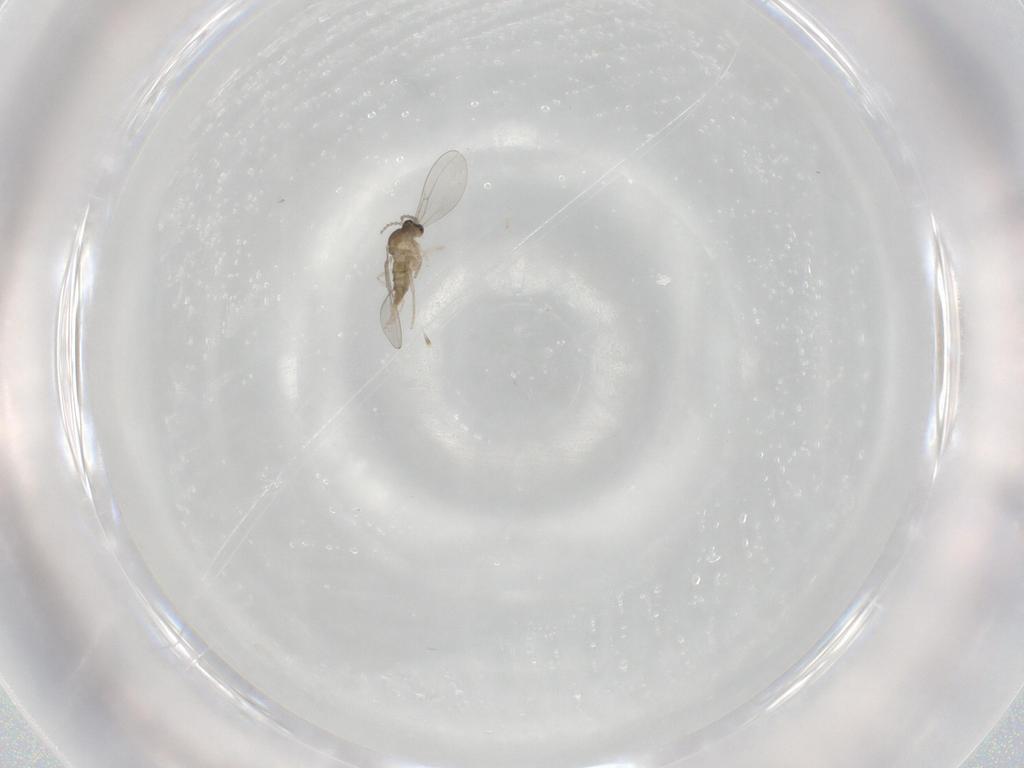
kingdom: Animalia
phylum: Arthropoda
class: Insecta
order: Diptera
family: Cecidomyiidae
